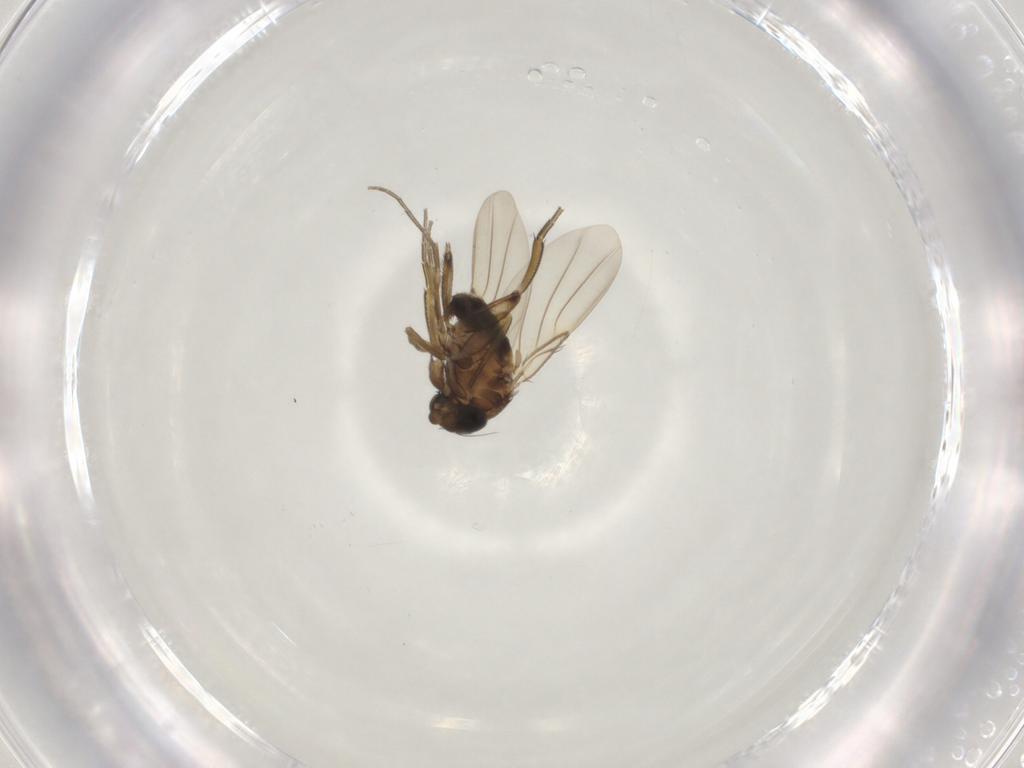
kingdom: Animalia
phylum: Arthropoda
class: Insecta
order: Diptera
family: Phoridae
